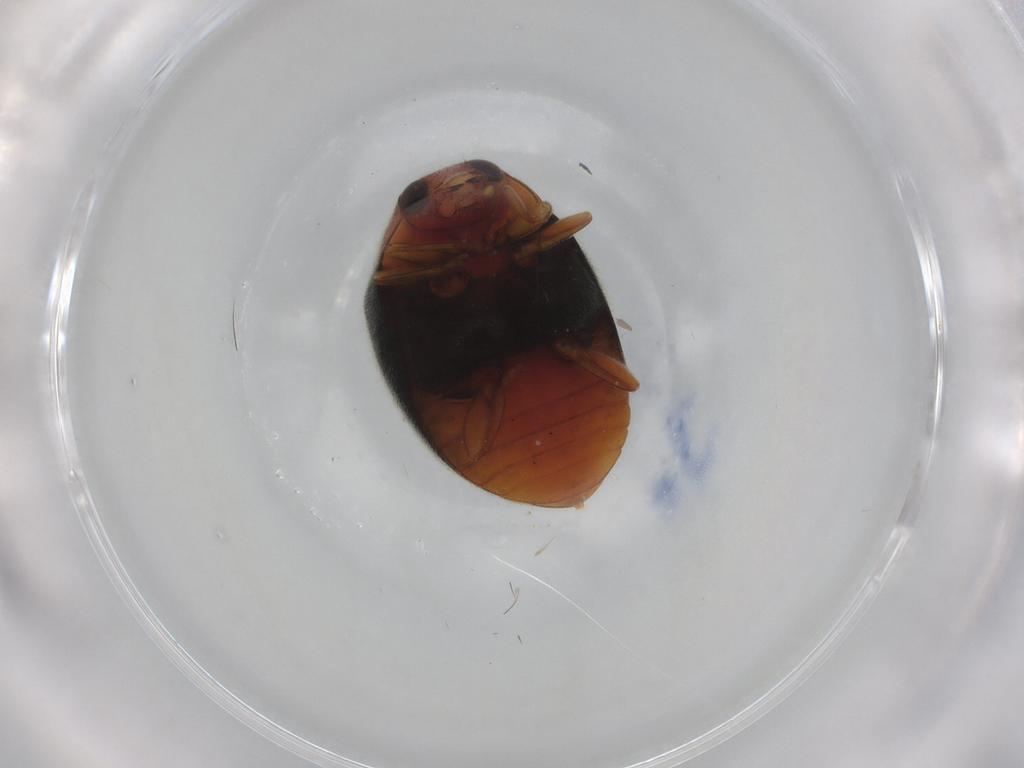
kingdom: Animalia
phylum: Arthropoda
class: Insecta
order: Coleoptera
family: Coccinellidae
